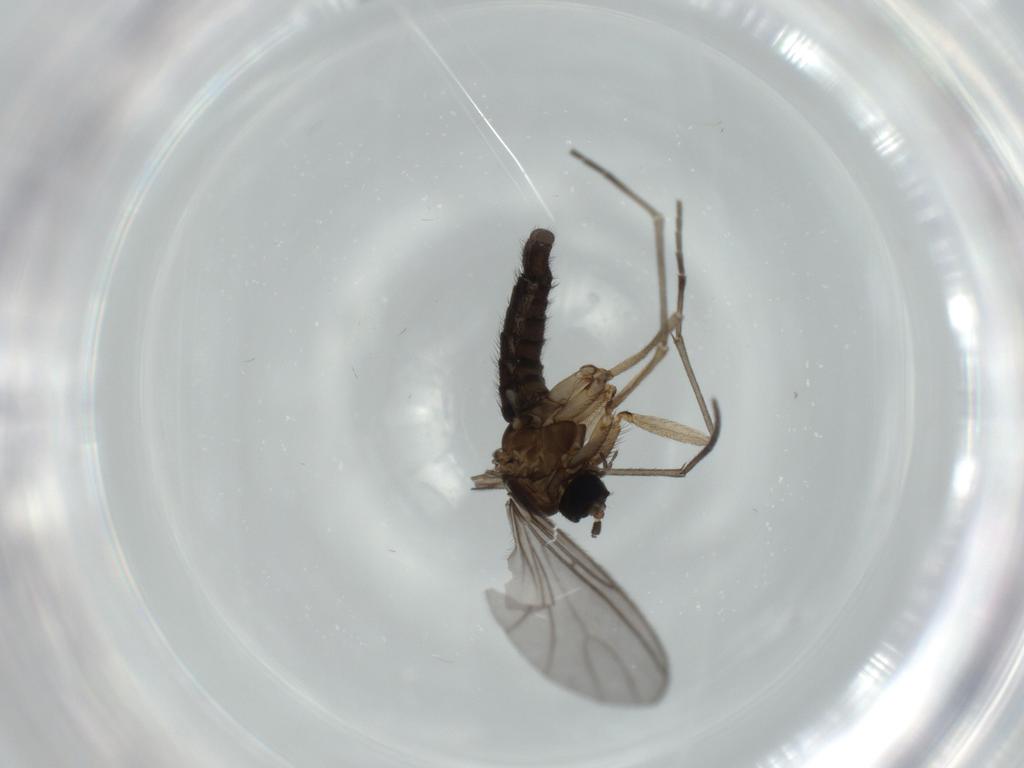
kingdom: Animalia
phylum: Arthropoda
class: Insecta
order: Diptera
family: Sciaridae
